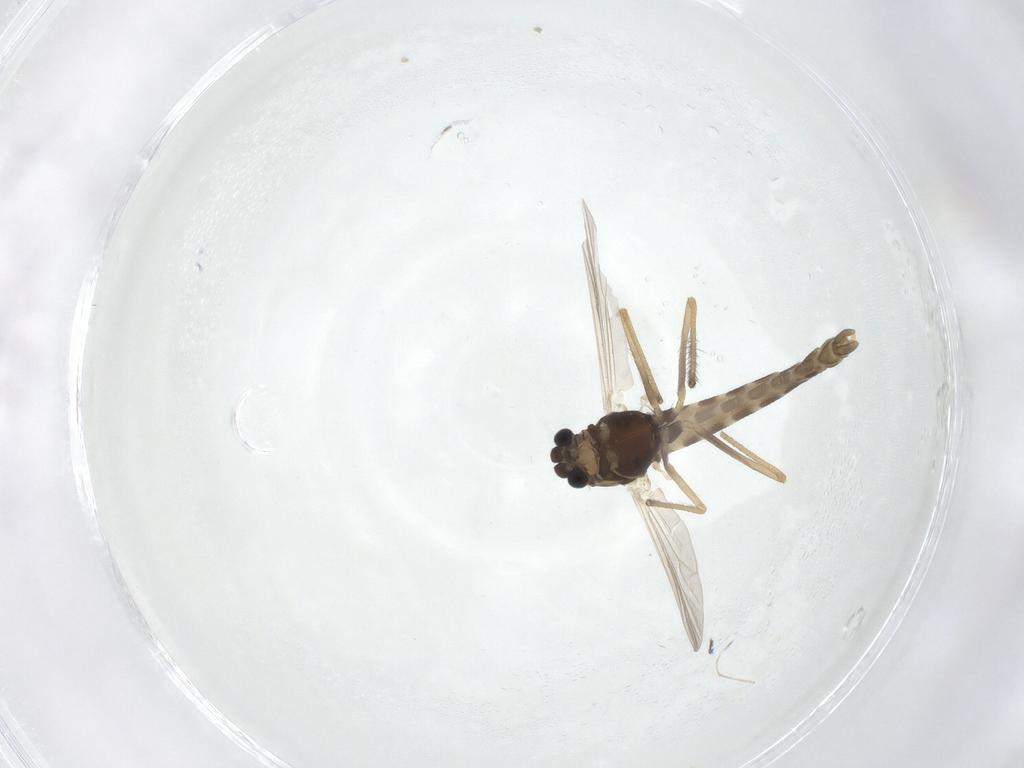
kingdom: Animalia
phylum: Arthropoda
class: Insecta
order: Diptera
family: Chironomidae
